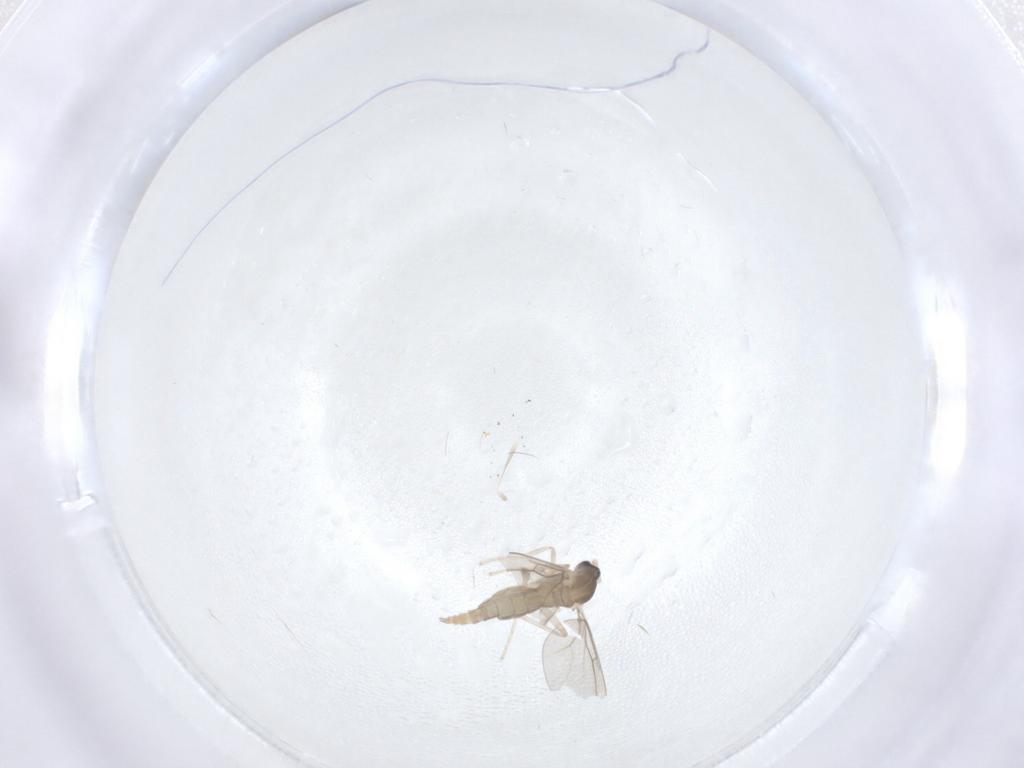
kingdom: Animalia
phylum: Arthropoda
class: Insecta
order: Diptera
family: Cecidomyiidae
